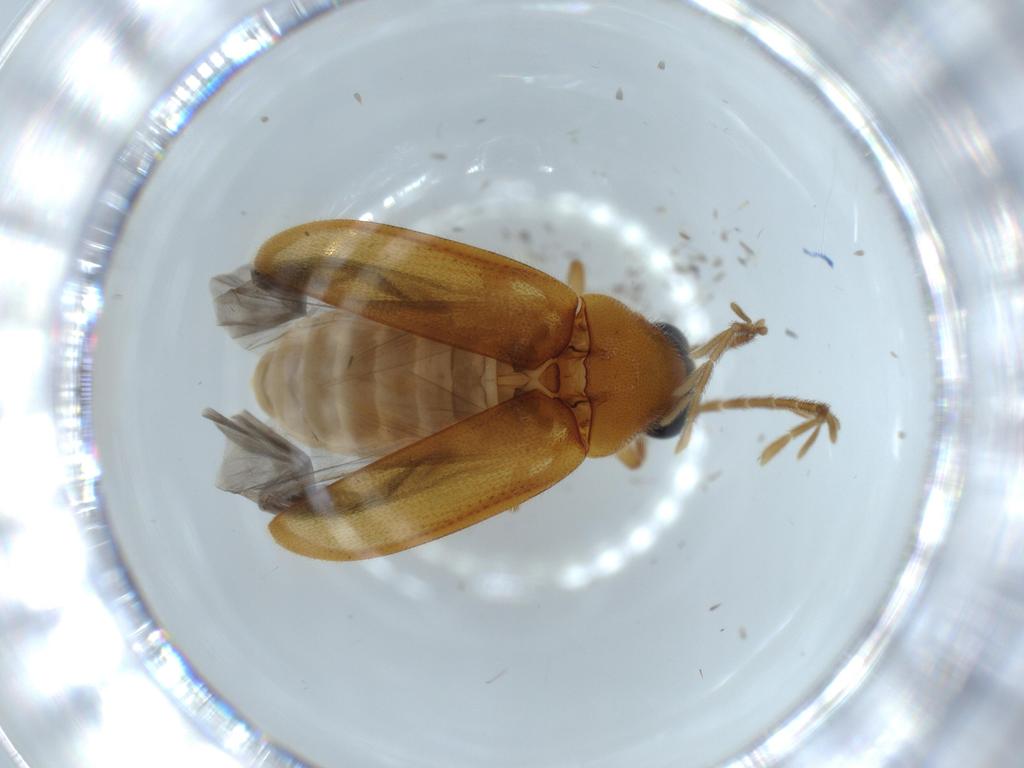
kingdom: Animalia
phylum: Arthropoda
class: Insecta
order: Coleoptera
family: Ptilodactylidae
